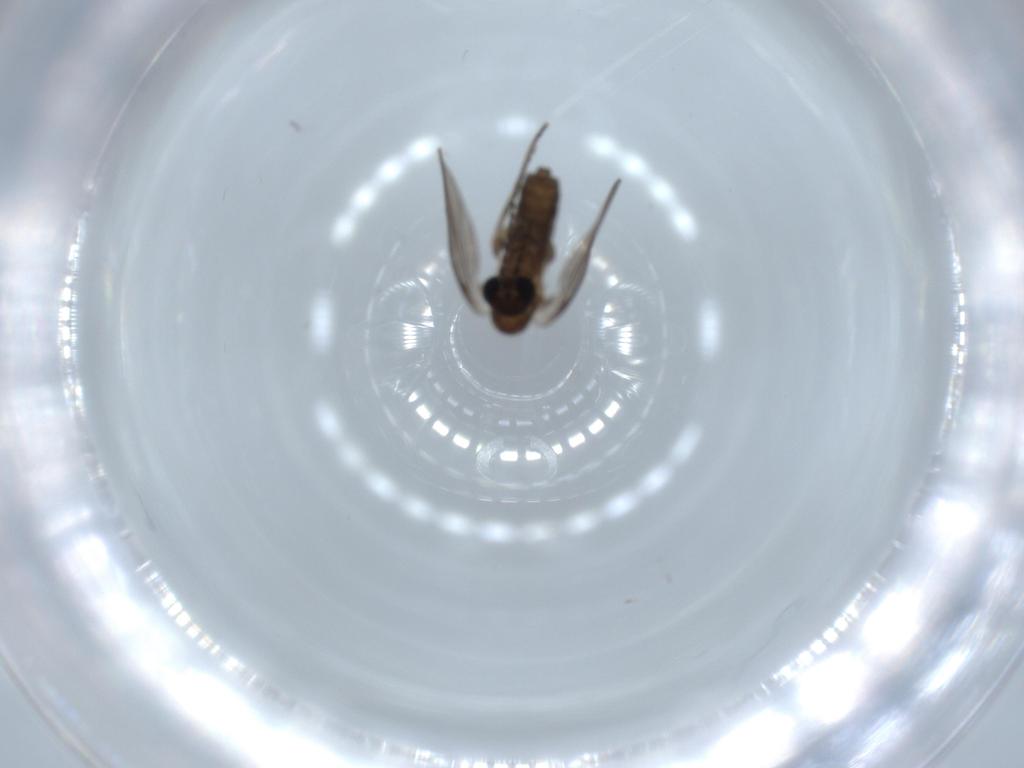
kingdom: Animalia
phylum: Arthropoda
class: Insecta
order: Diptera
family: Psychodidae
